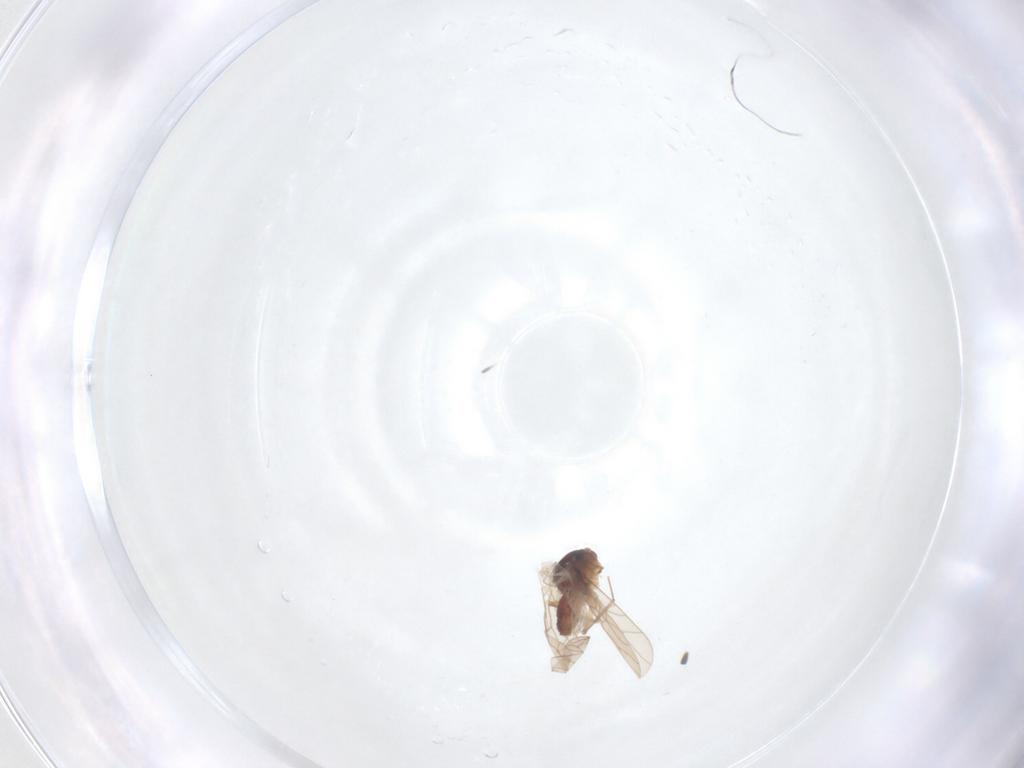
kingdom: Animalia
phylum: Arthropoda
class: Insecta
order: Psocodea
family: Lepidopsocidae
